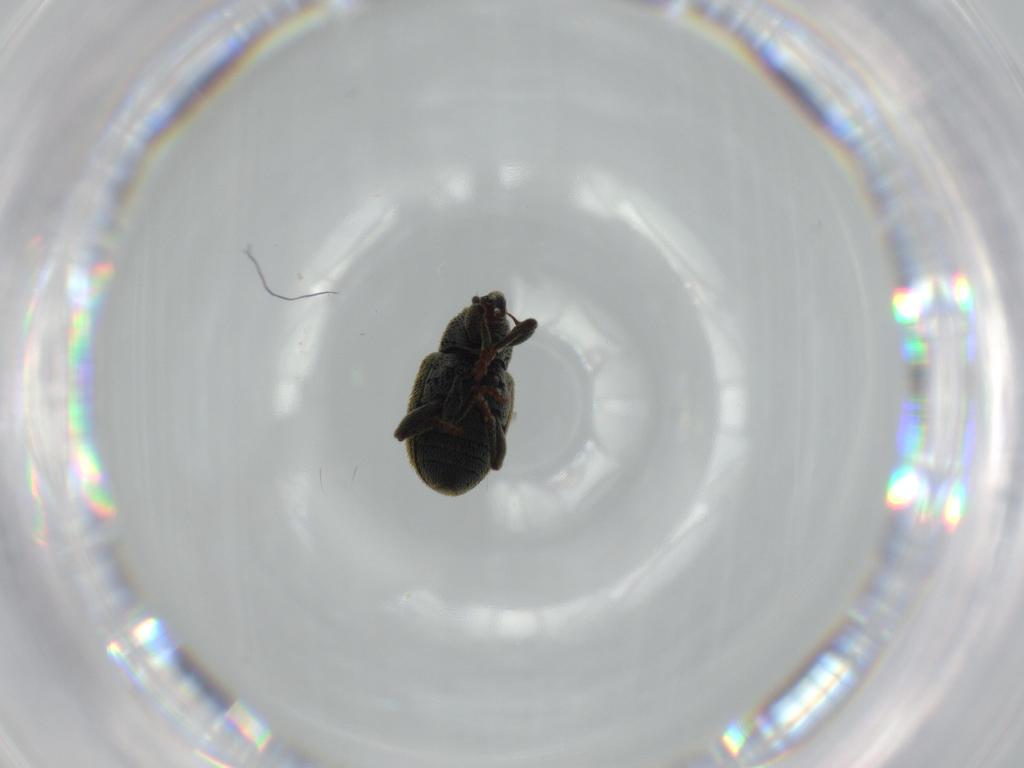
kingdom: Animalia
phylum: Arthropoda
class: Insecta
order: Coleoptera
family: Curculionidae
